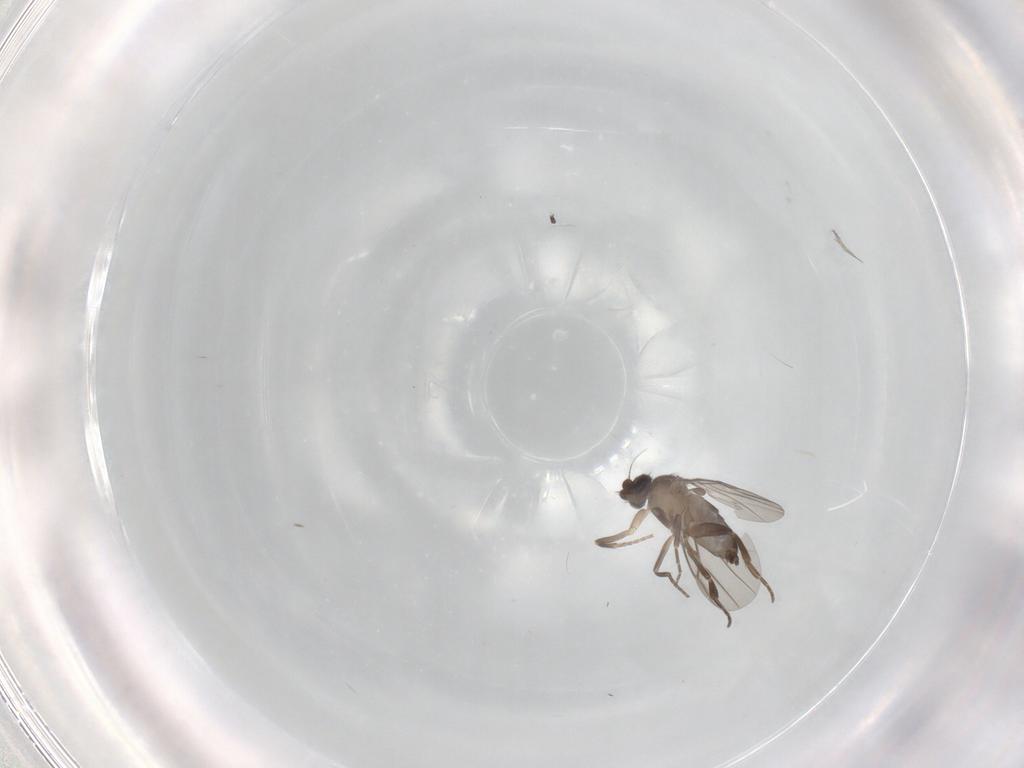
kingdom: Animalia
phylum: Arthropoda
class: Insecta
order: Diptera
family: Phoridae
